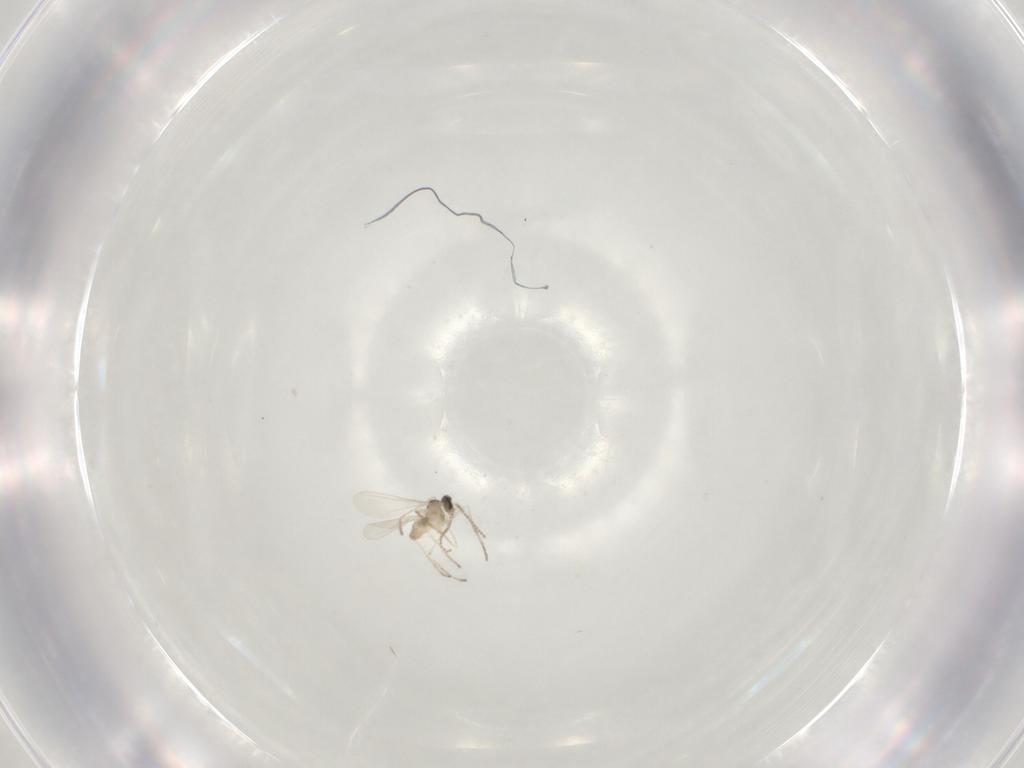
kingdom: Animalia
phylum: Arthropoda
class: Insecta
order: Diptera
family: Cecidomyiidae
